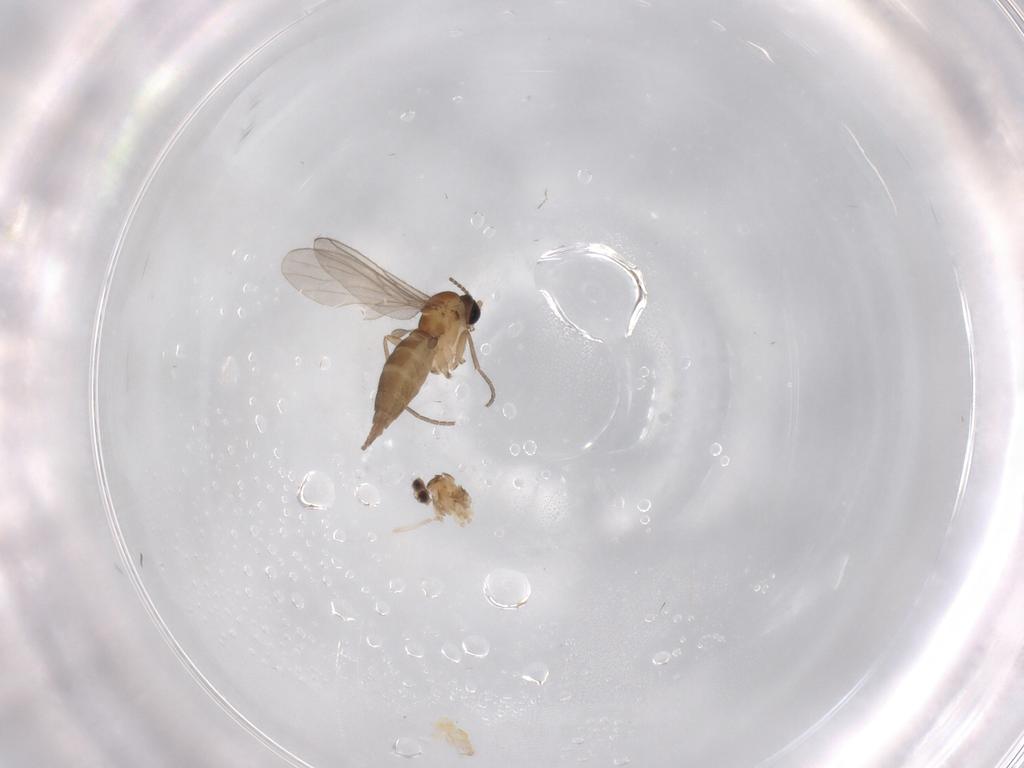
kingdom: Animalia
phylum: Arthropoda
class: Insecta
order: Diptera
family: Sciaridae
